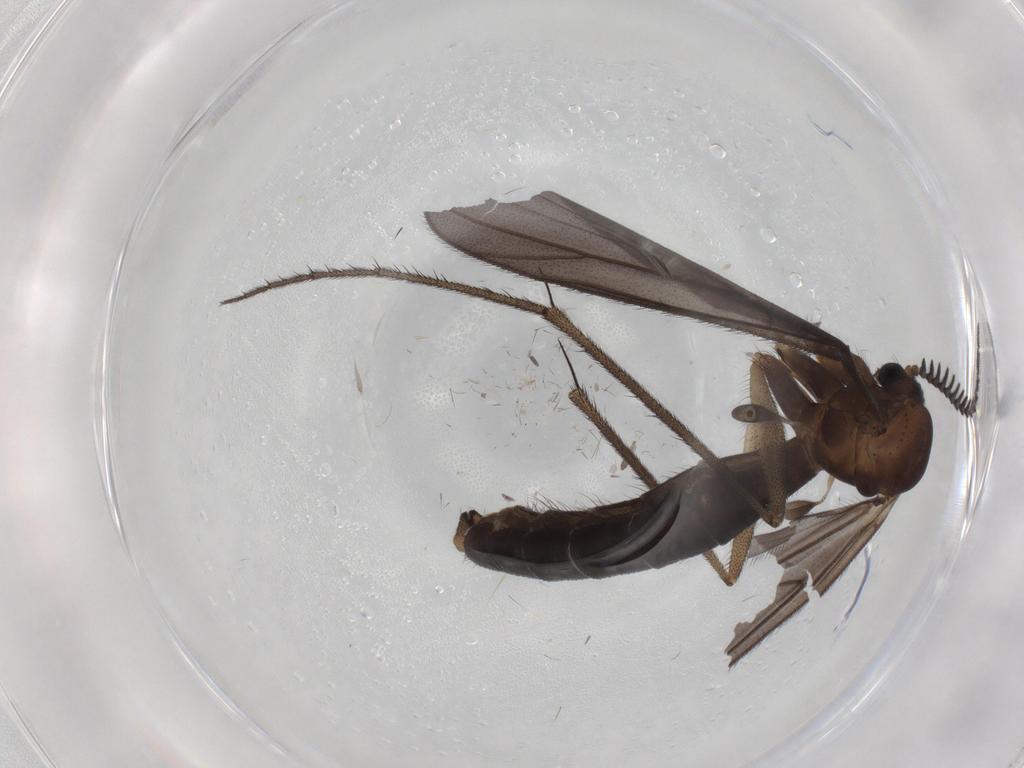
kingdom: Animalia
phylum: Arthropoda
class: Insecta
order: Diptera
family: Ditomyiidae
